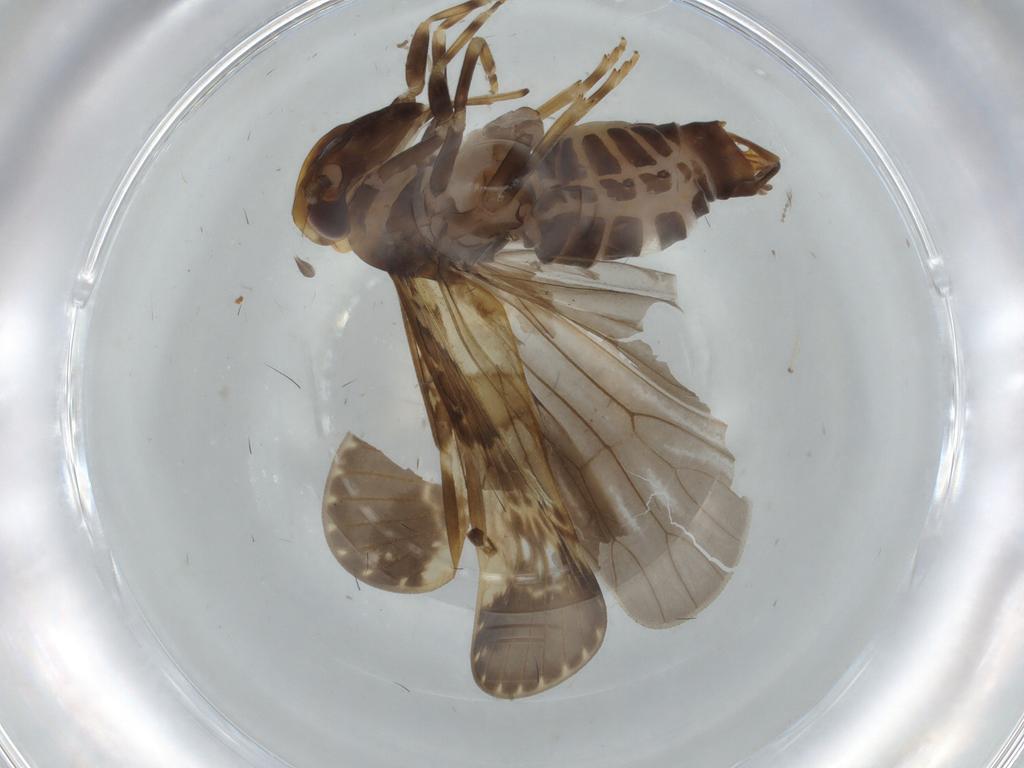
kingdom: Animalia
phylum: Arthropoda
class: Insecta
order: Hemiptera
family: Cixiidae
